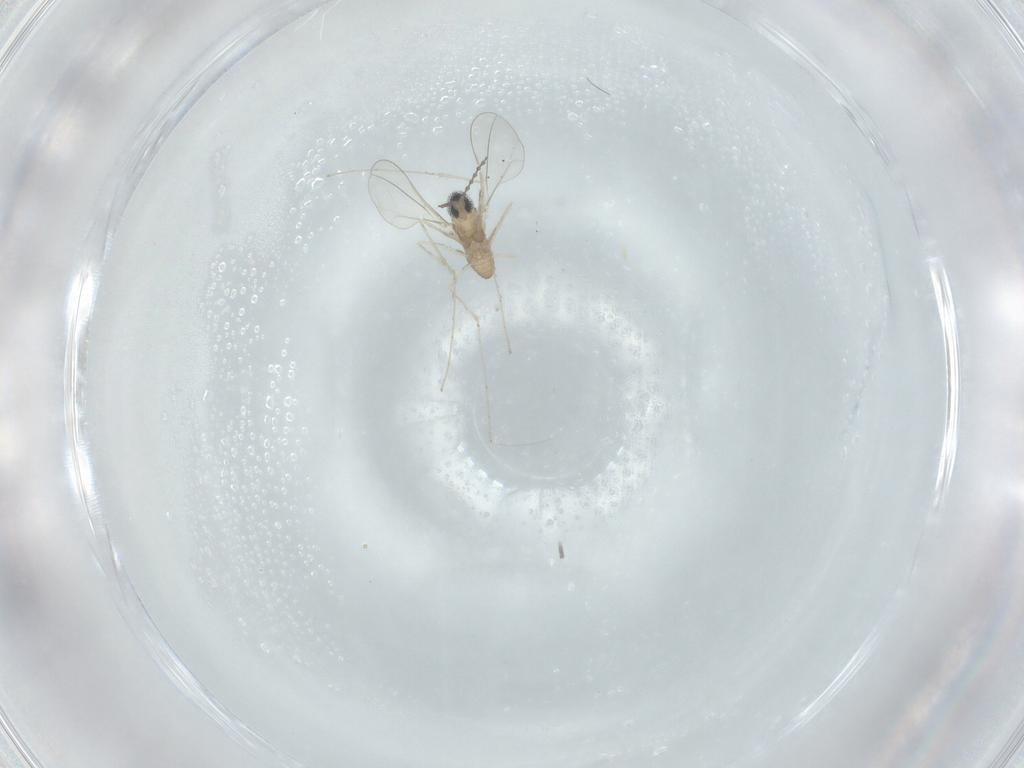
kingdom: Animalia
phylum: Arthropoda
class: Insecta
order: Diptera
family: Cecidomyiidae
